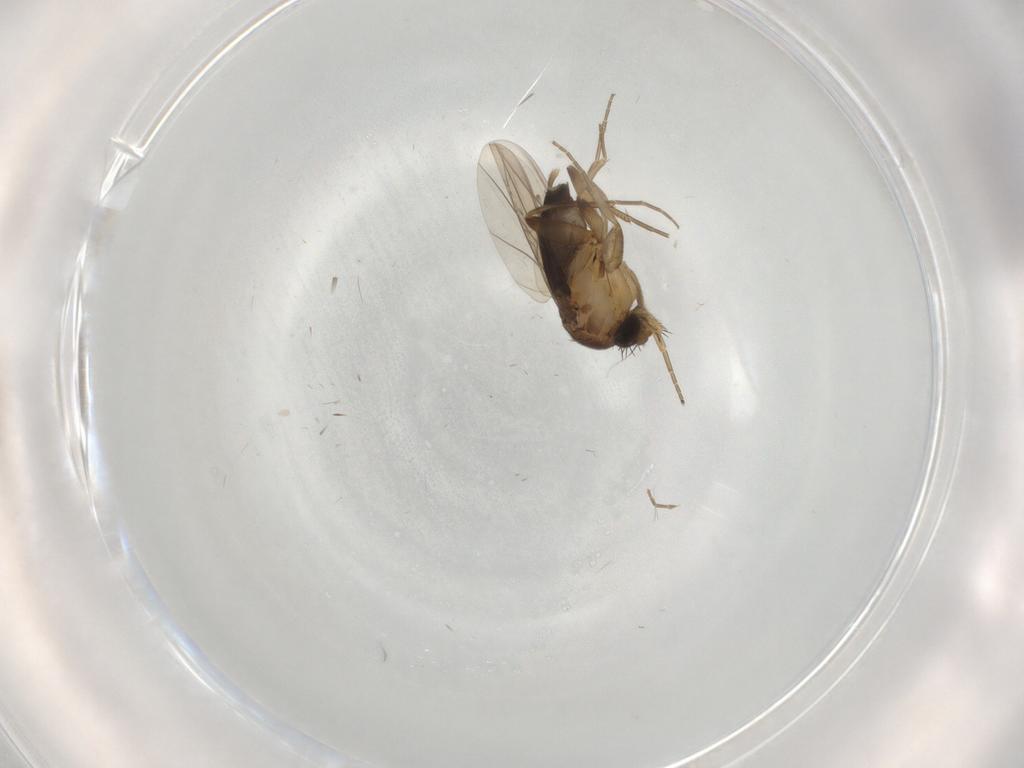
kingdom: Animalia
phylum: Arthropoda
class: Insecta
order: Diptera
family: Phoridae
